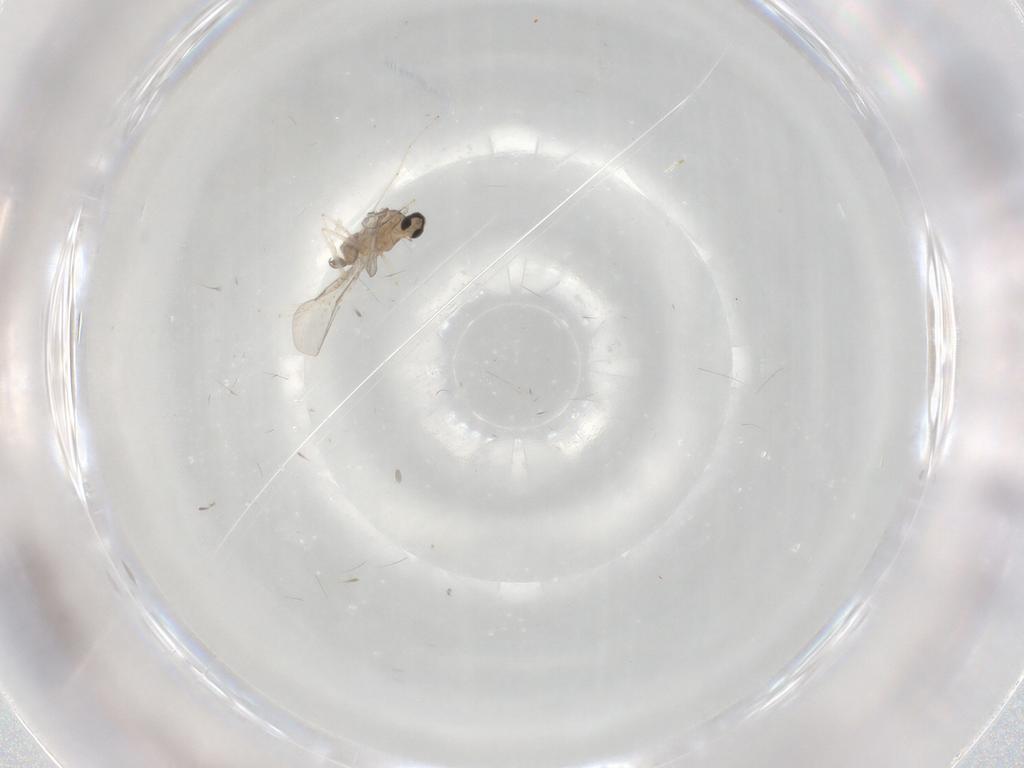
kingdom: Animalia
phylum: Arthropoda
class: Insecta
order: Diptera
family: Cecidomyiidae
